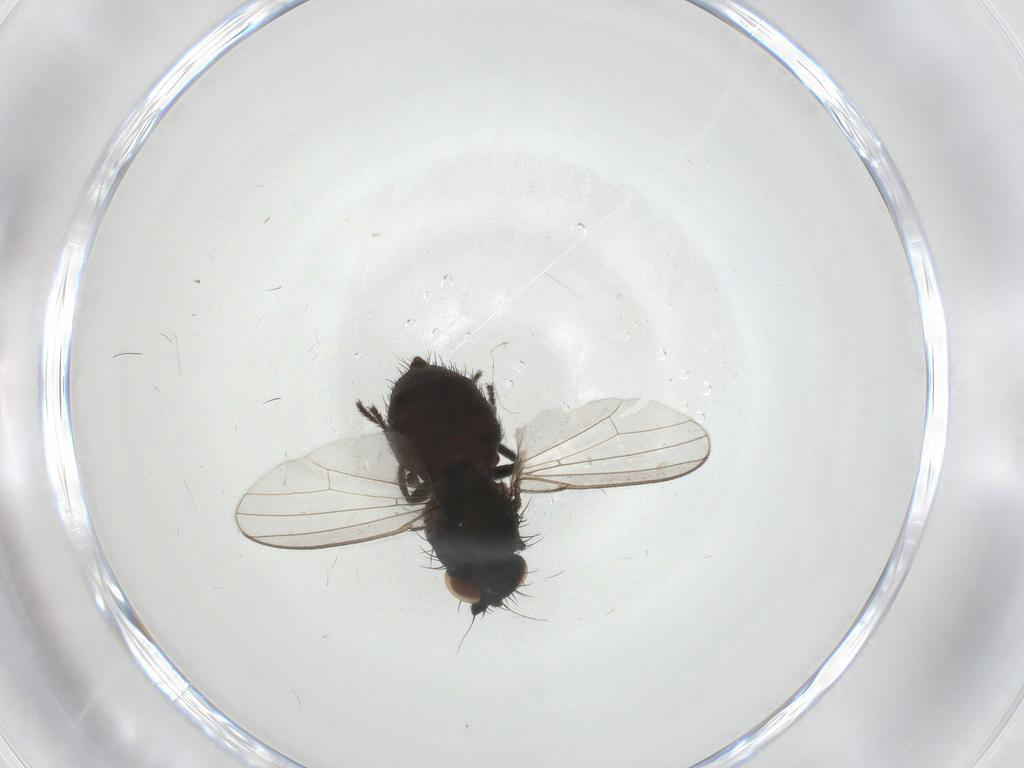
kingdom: Animalia
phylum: Arthropoda
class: Insecta
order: Diptera
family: Milichiidae
